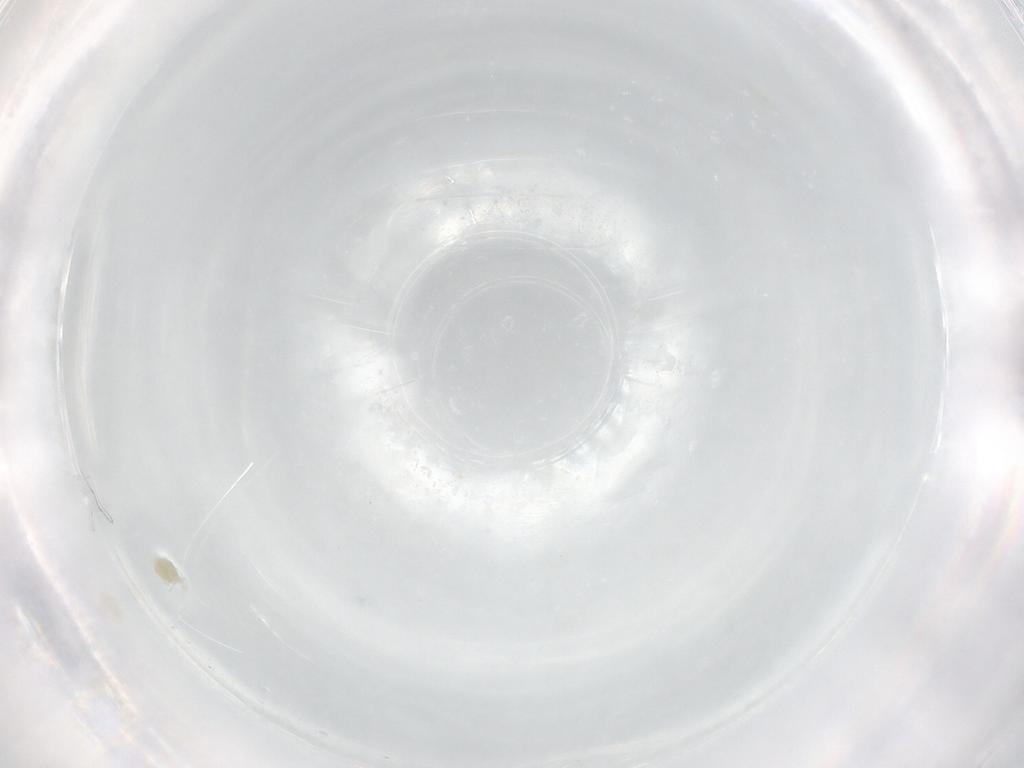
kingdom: Animalia
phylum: Arthropoda
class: Arachnida
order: Trombidiformes
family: Eupodidae
